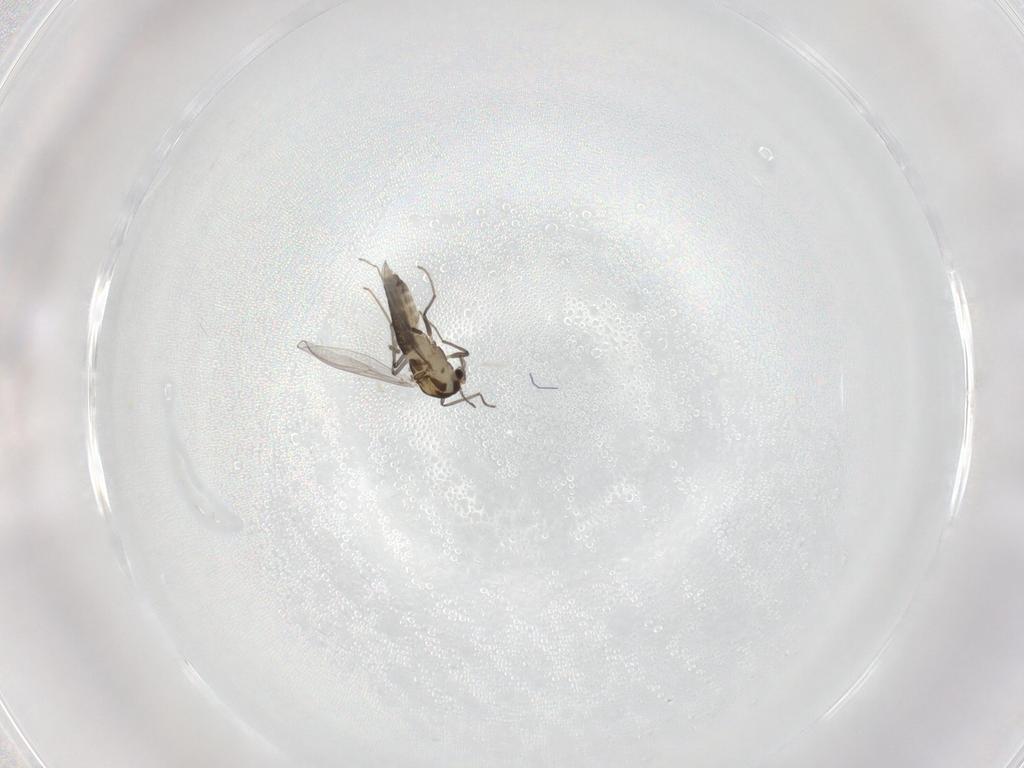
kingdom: Animalia
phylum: Arthropoda
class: Insecta
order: Diptera
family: Chironomidae
